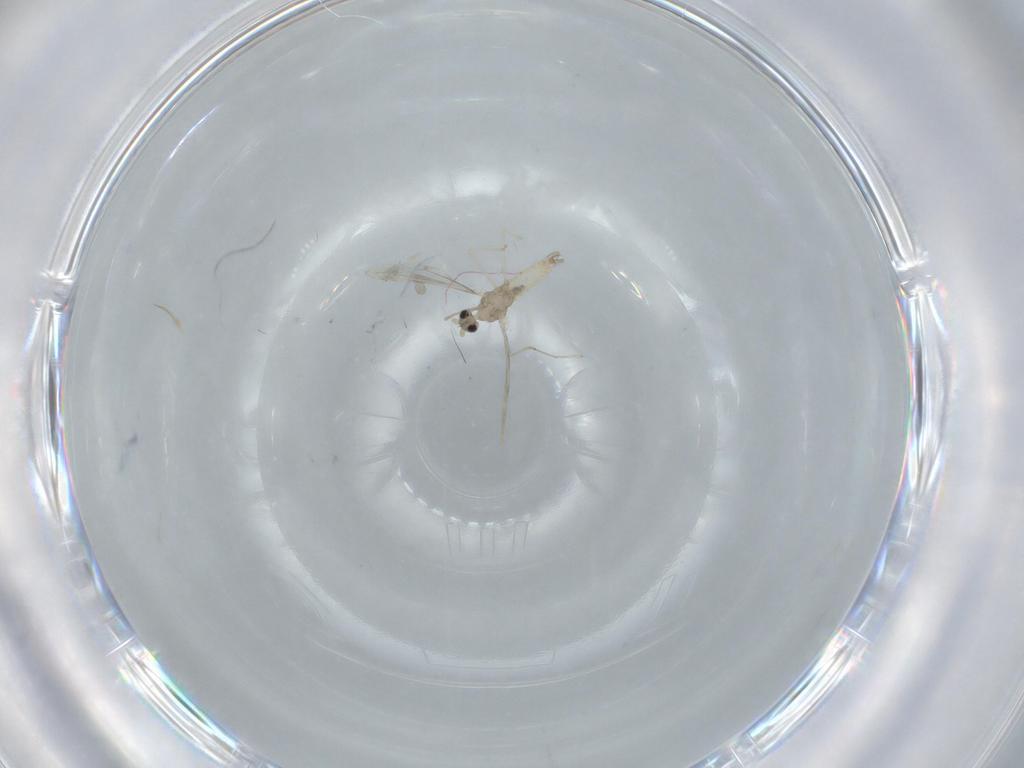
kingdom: Animalia
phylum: Arthropoda
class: Insecta
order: Diptera
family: Cecidomyiidae
